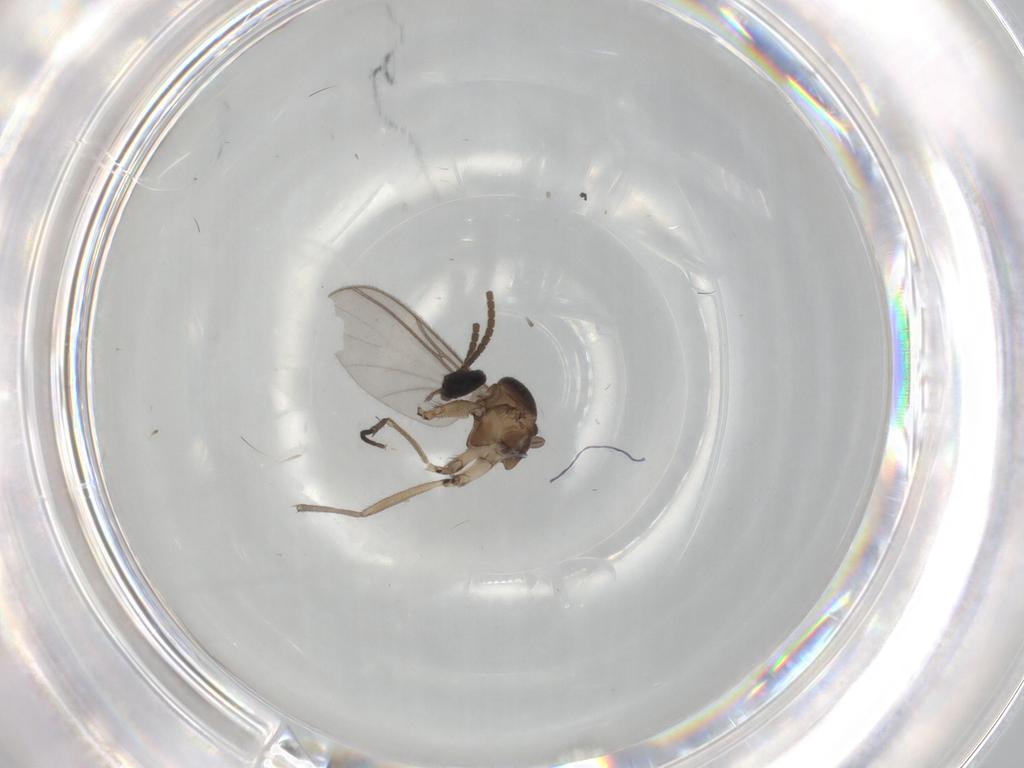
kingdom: Animalia
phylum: Arthropoda
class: Insecta
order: Diptera
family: Sciaridae
